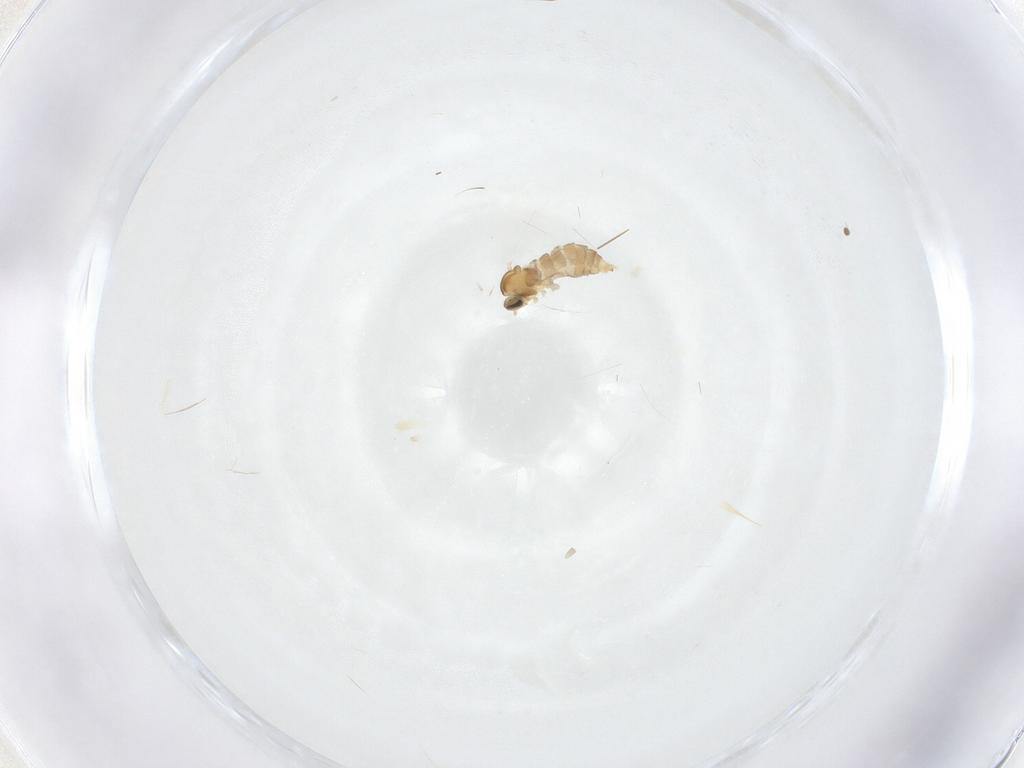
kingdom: Animalia
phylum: Arthropoda
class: Insecta
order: Diptera
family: Cecidomyiidae
